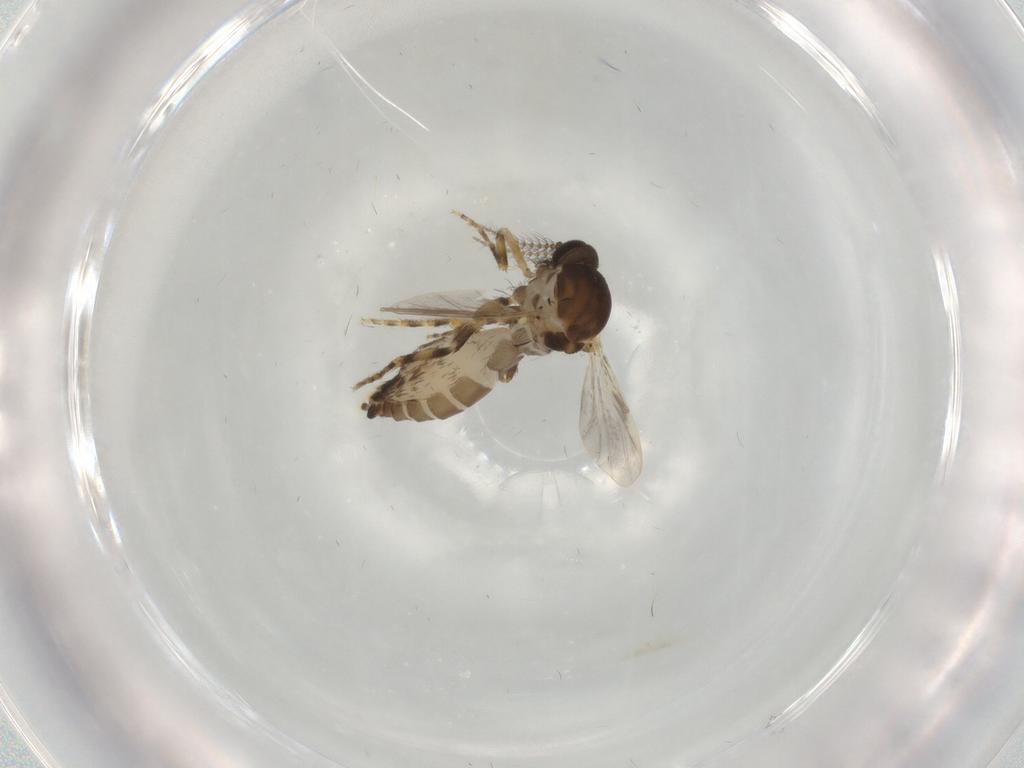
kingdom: Animalia
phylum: Arthropoda
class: Insecta
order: Diptera
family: Ceratopogonidae
